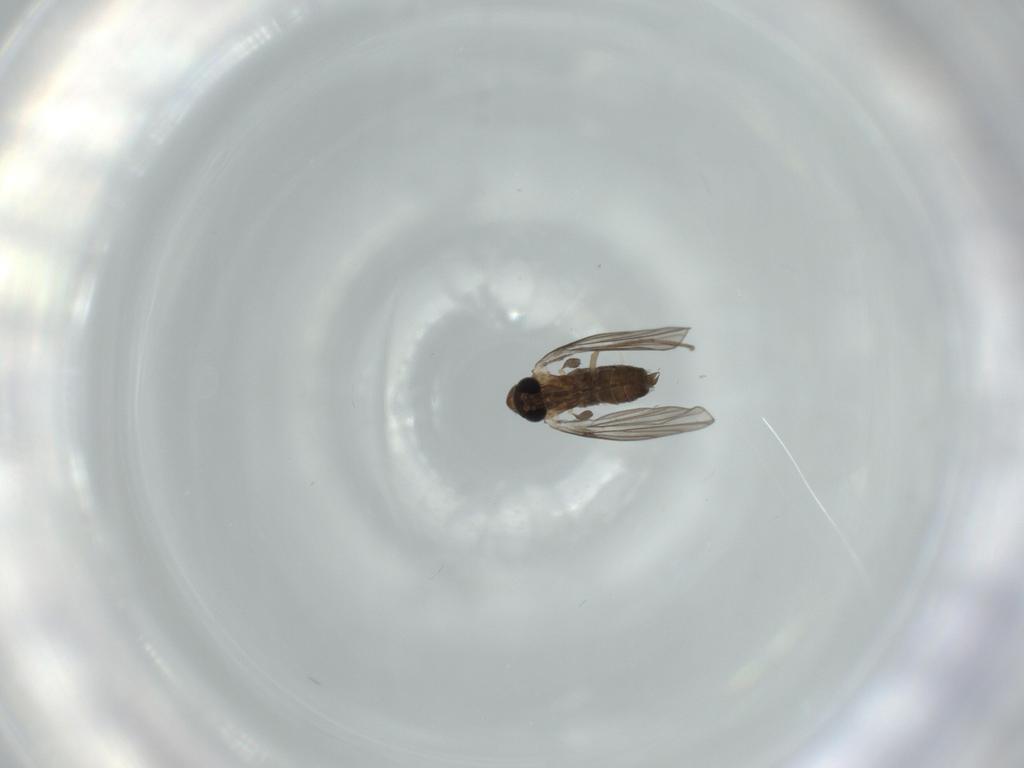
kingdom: Animalia
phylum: Arthropoda
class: Insecta
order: Diptera
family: Psychodidae
